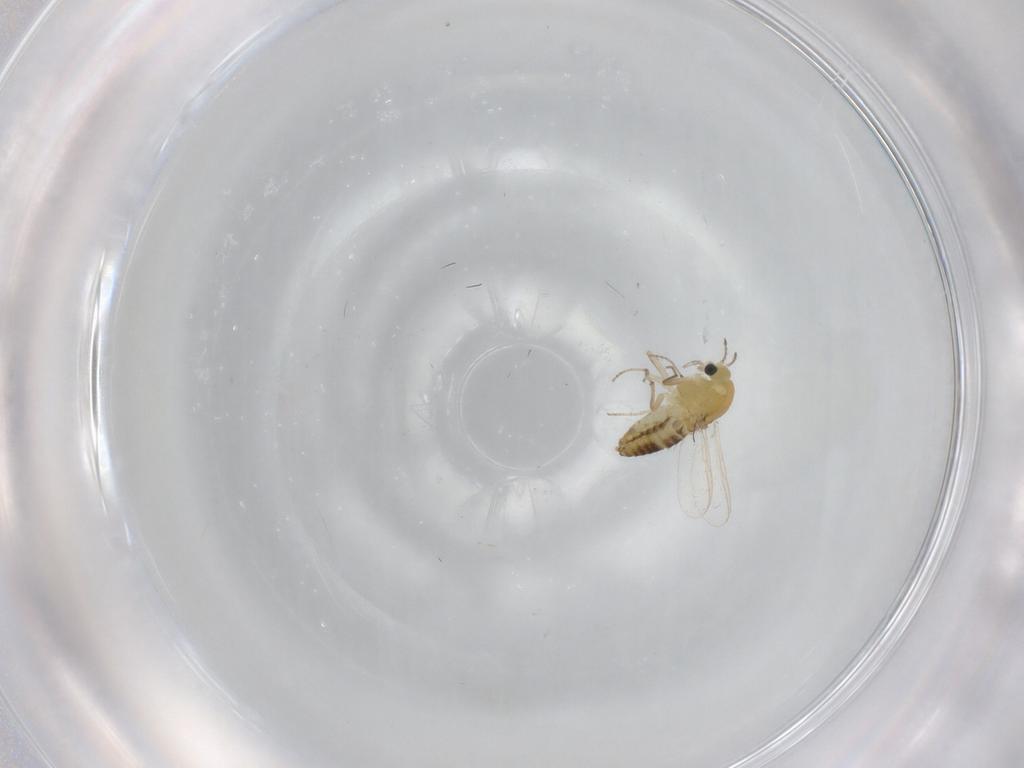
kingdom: Animalia
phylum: Arthropoda
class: Insecta
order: Diptera
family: Chironomidae
